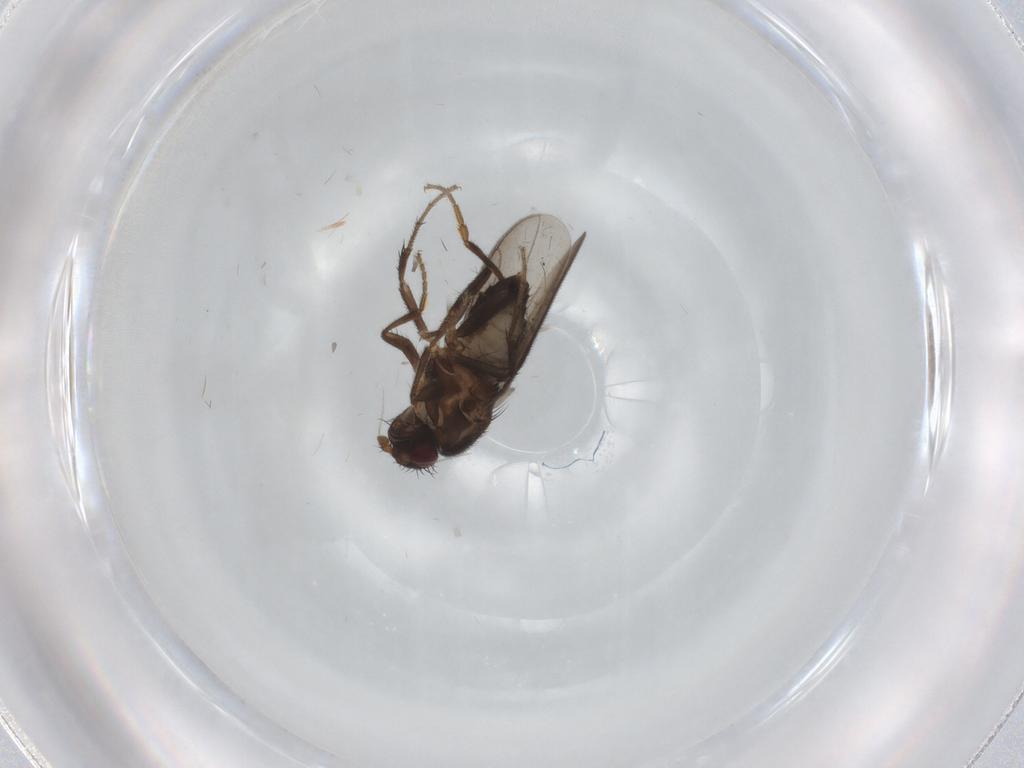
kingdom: Animalia
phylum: Arthropoda
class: Insecta
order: Diptera
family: Sphaeroceridae
